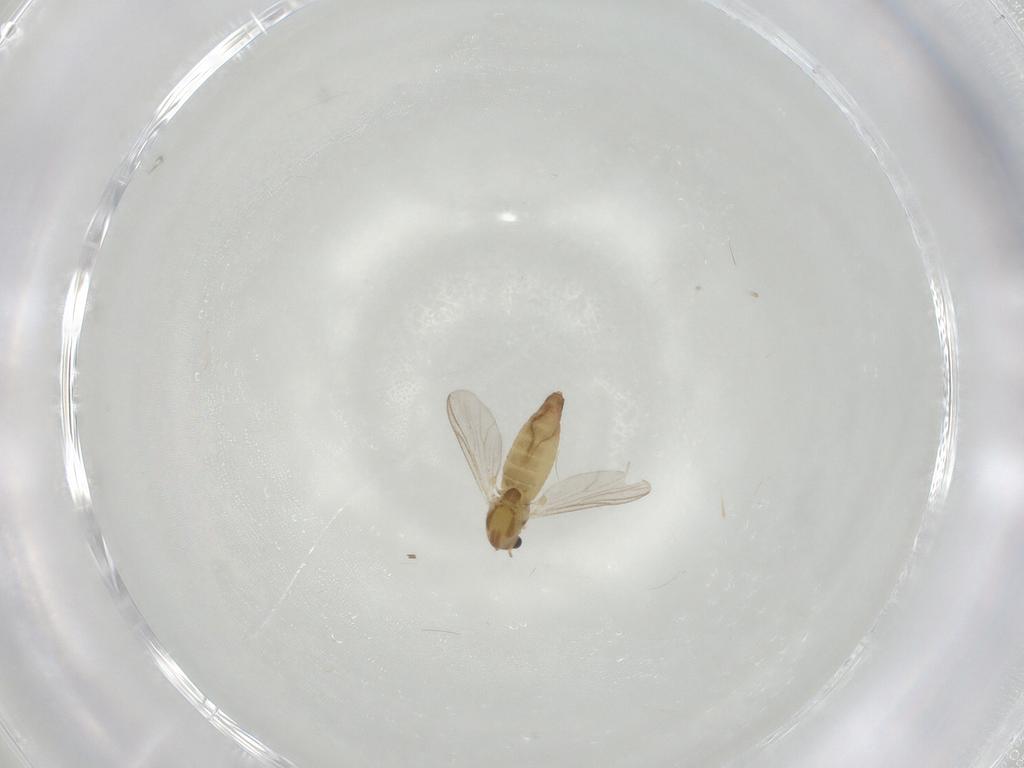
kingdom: Animalia
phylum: Arthropoda
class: Insecta
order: Diptera
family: Chironomidae
